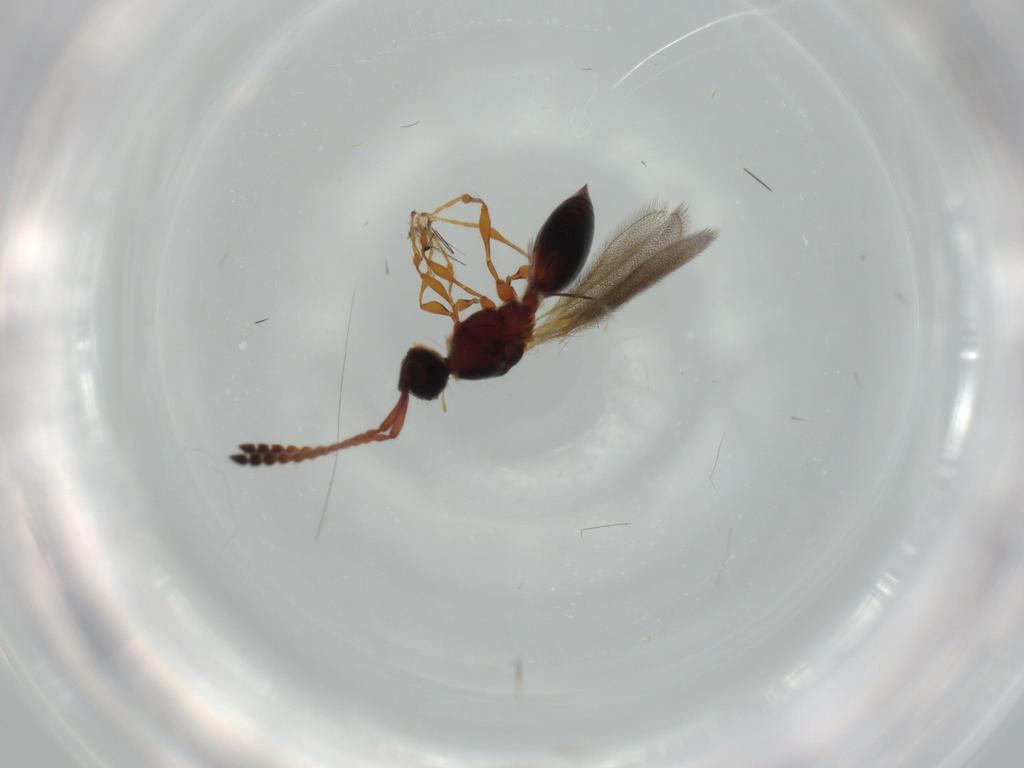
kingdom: Animalia
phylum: Arthropoda
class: Insecta
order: Hymenoptera
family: Diapriidae
